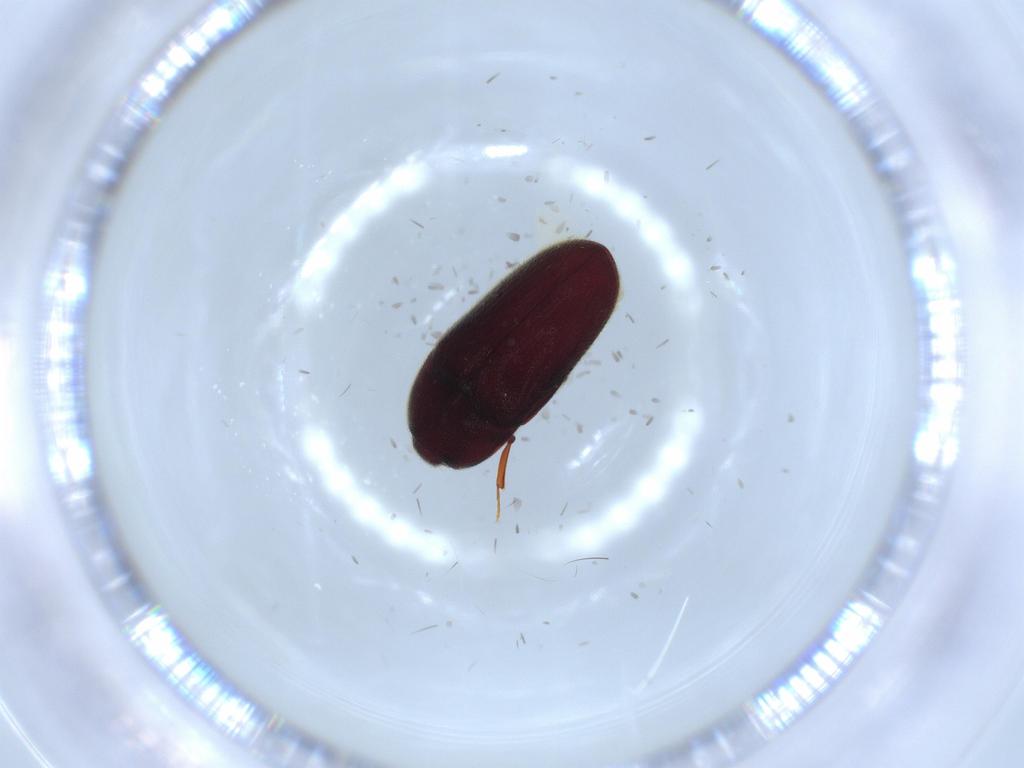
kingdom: Animalia
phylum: Arthropoda
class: Insecta
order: Coleoptera
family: Throscidae
